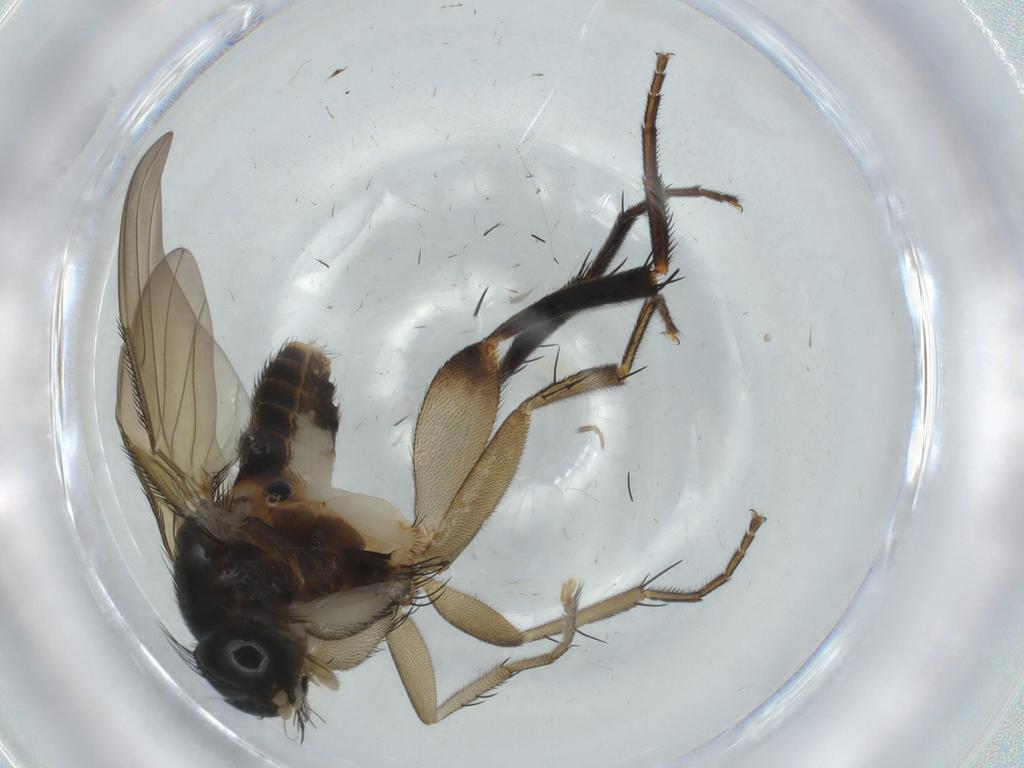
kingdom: Animalia
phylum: Arthropoda
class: Insecta
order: Diptera
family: Phoridae
